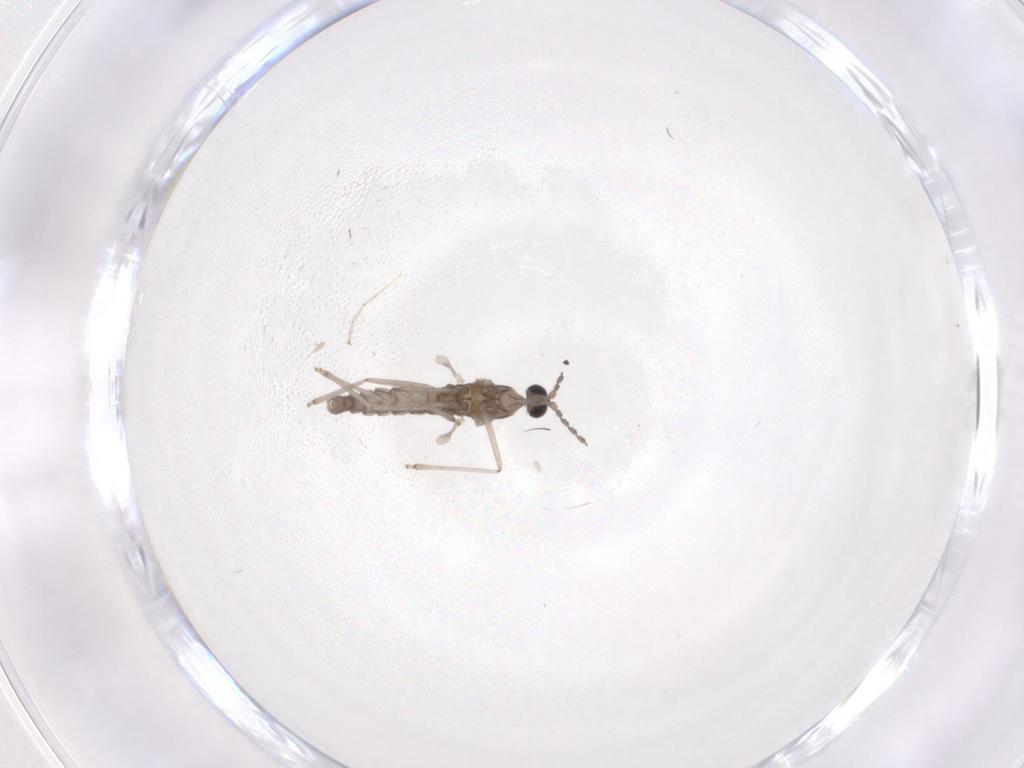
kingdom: Animalia
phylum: Arthropoda
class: Insecta
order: Diptera
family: Cecidomyiidae
